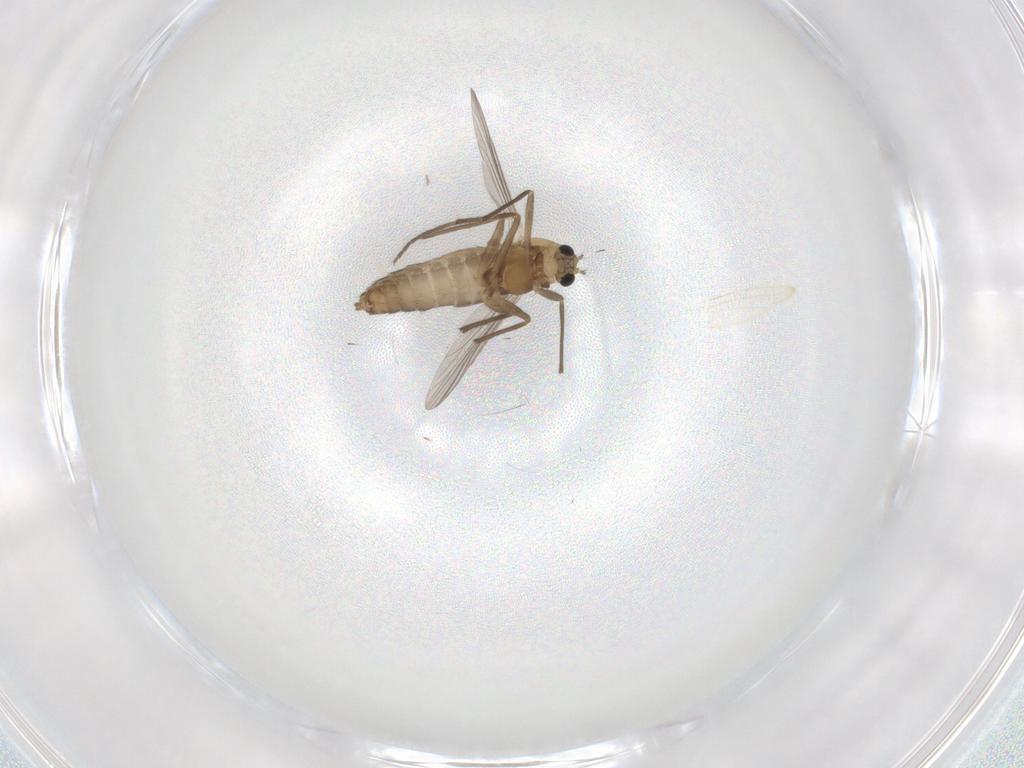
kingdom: Animalia
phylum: Arthropoda
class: Insecta
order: Diptera
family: Chironomidae
